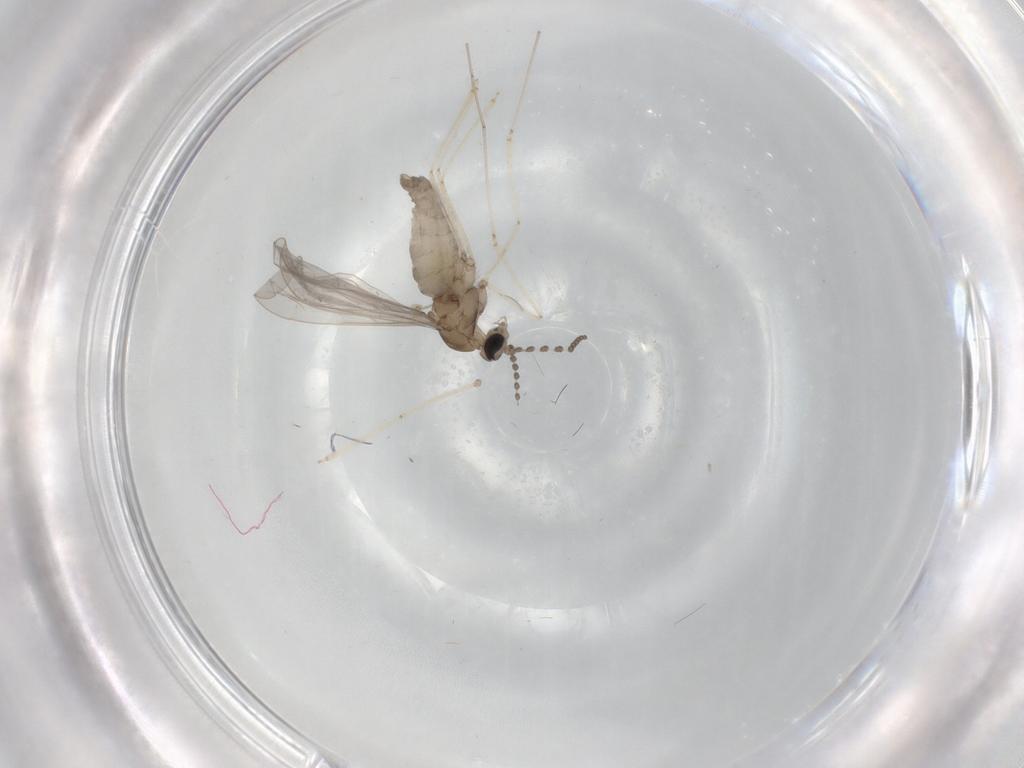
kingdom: Animalia
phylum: Arthropoda
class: Insecta
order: Diptera
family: Cecidomyiidae
